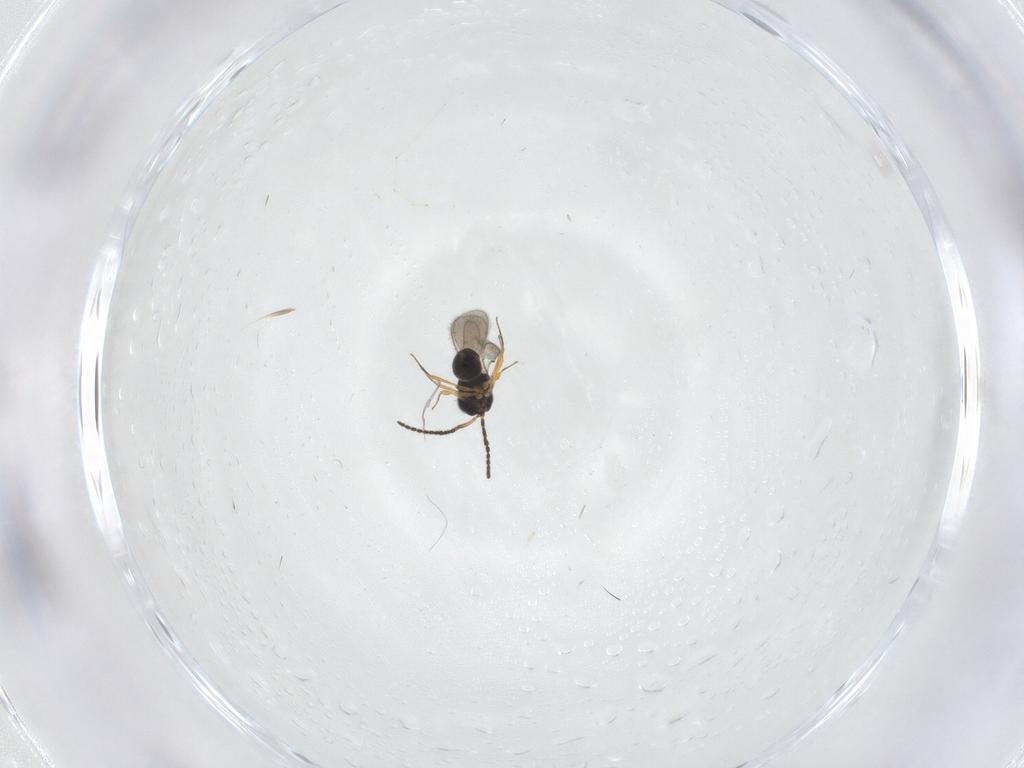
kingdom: Animalia
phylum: Arthropoda
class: Insecta
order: Hymenoptera
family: Scelionidae
